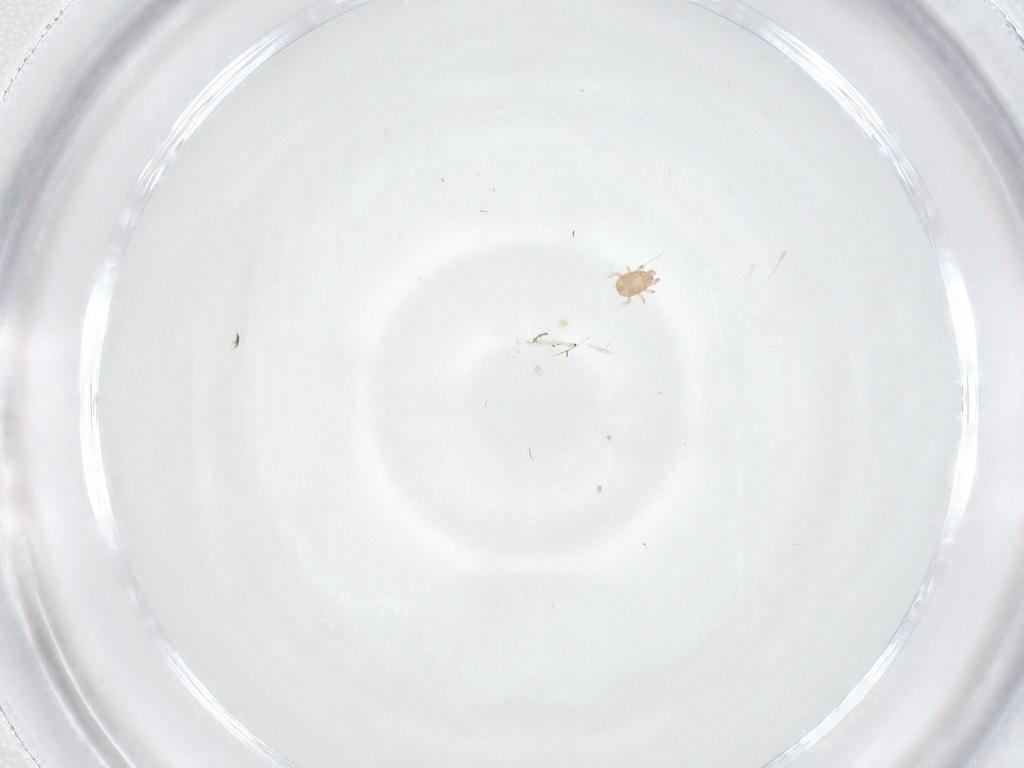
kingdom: Animalia
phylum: Arthropoda
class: Arachnida
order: Mesostigmata
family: Ascidae
